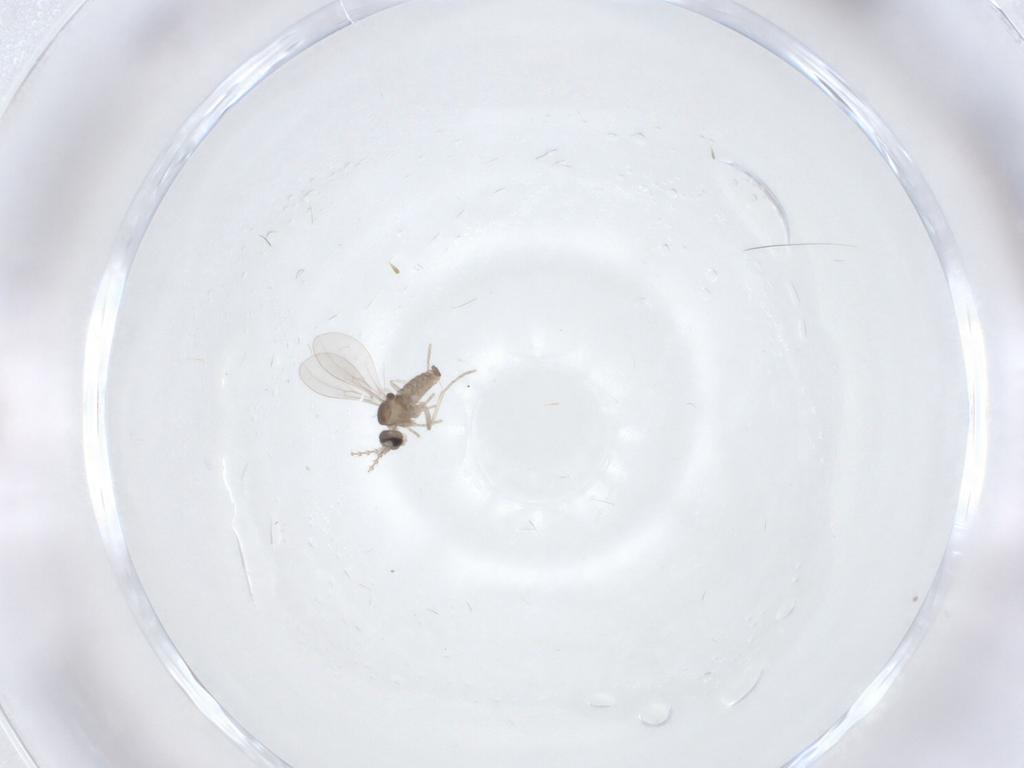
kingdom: Animalia
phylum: Arthropoda
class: Insecta
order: Diptera
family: Cecidomyiidae
